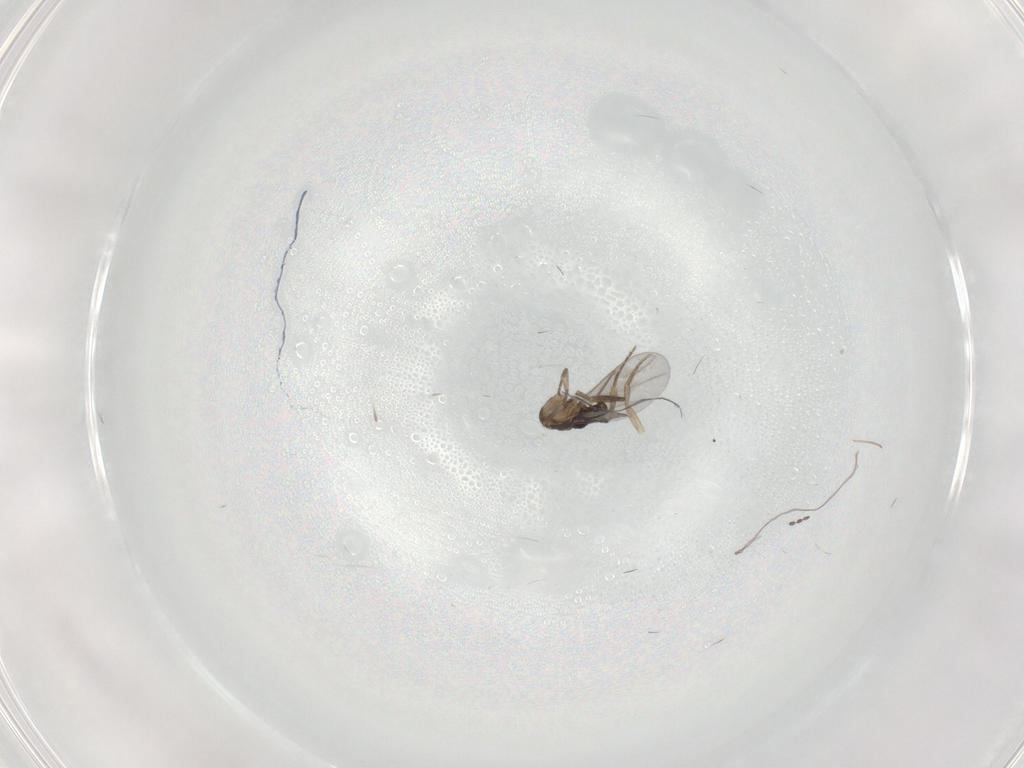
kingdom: Animalia
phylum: Arthropoda
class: Insecta
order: Diptera
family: Phoridae
